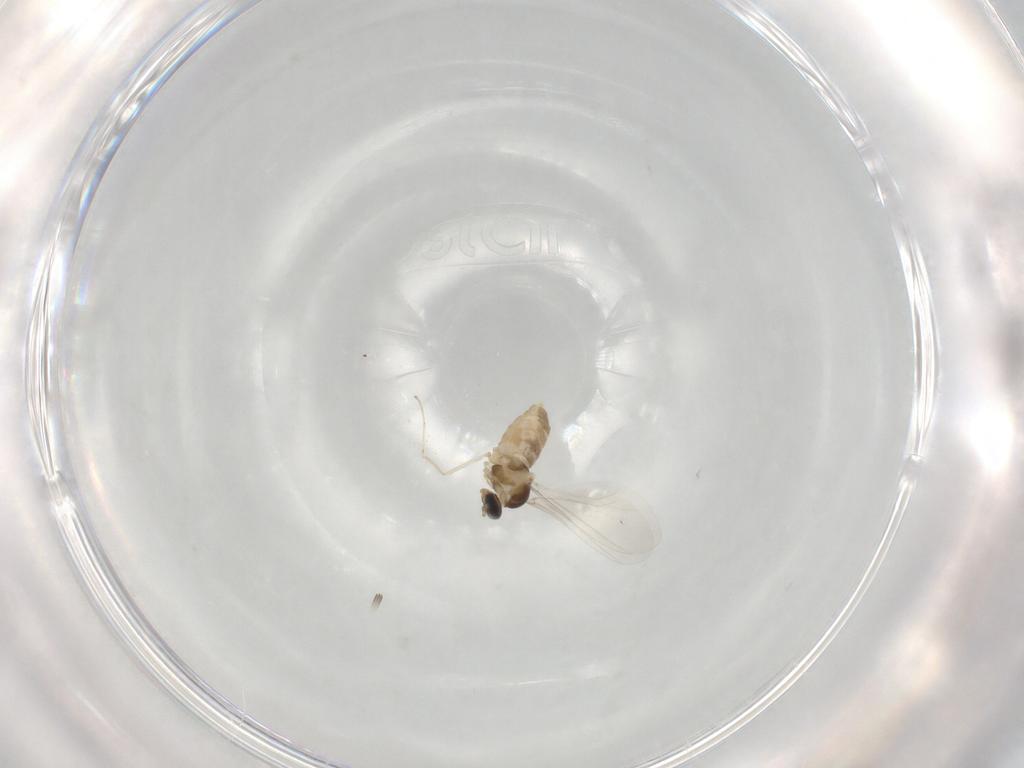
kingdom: Animalia
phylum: Arthropoda
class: Insecta
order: Diptera
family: Cecidomyiidae
